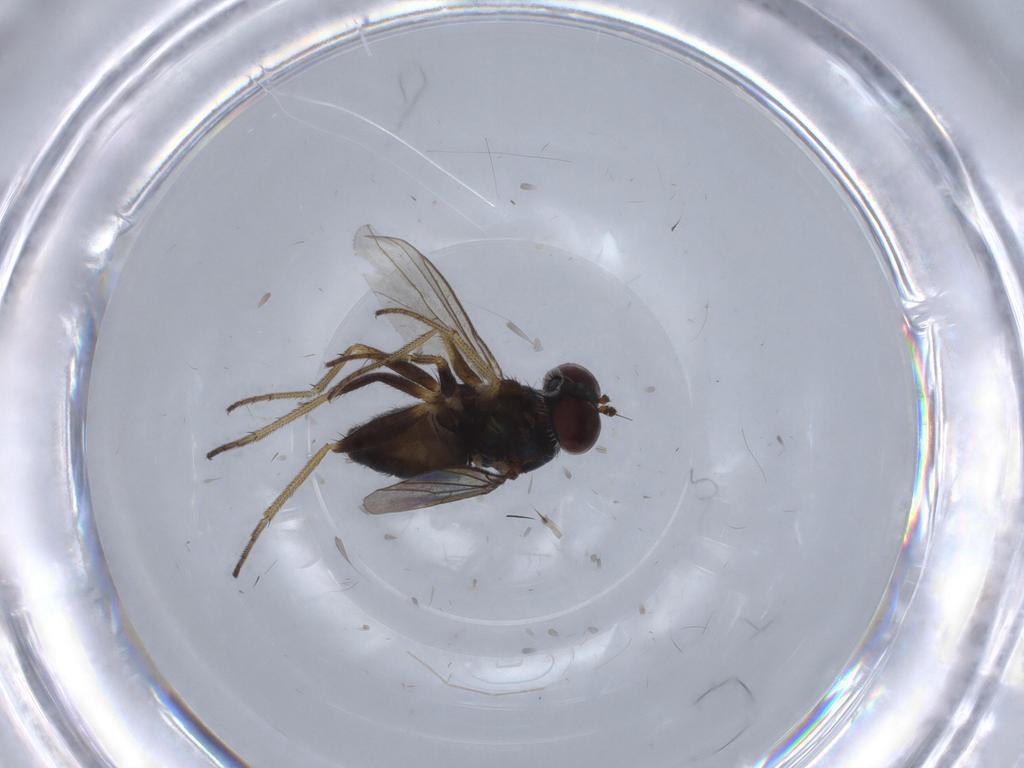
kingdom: Animalia
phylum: Arthropoda
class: Insecta
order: Diptera
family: Dolichopodidae
